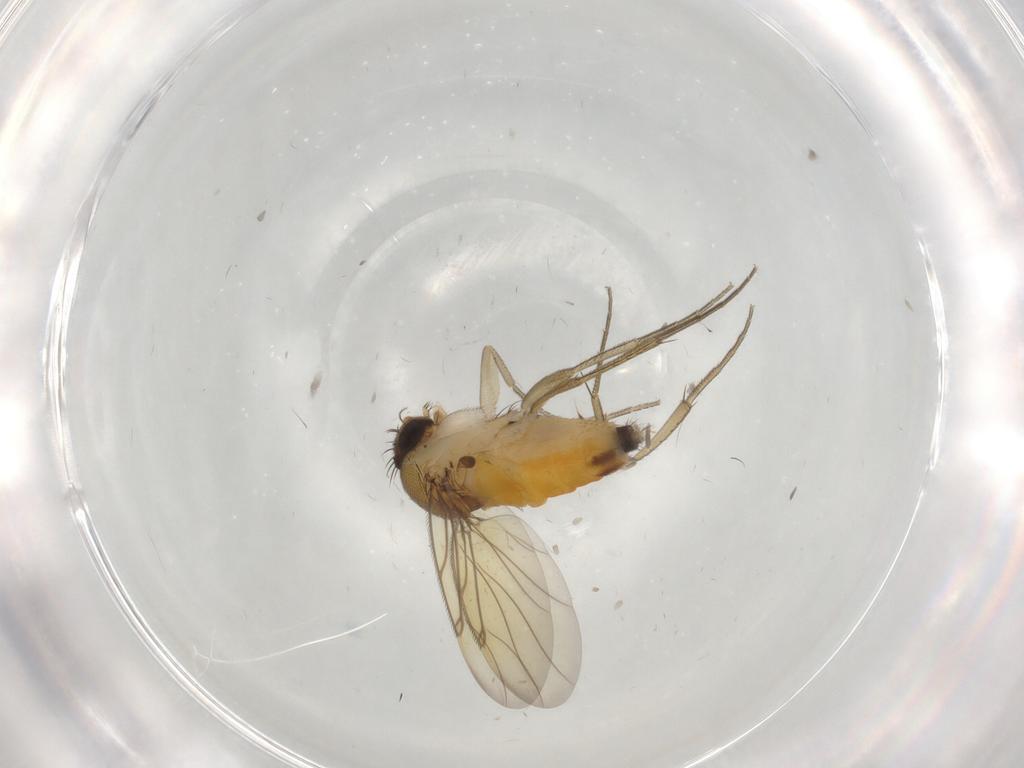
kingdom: Animalia
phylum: Arthropoda
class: Insecta
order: Diptera
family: Phoridae
